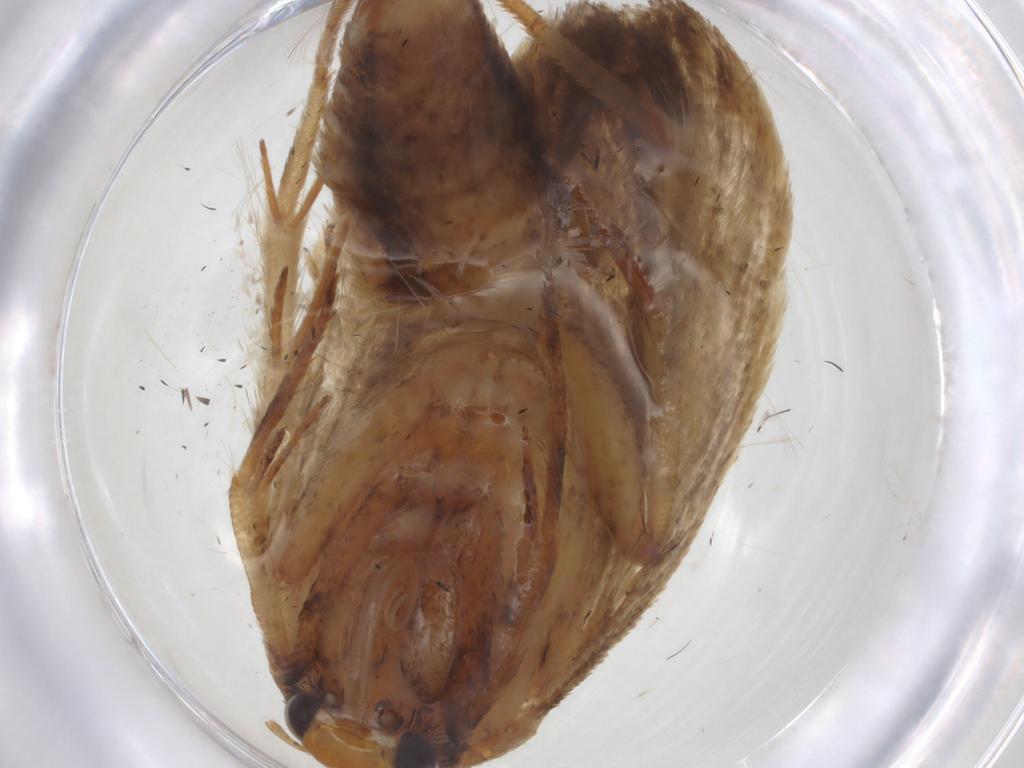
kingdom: Animalia
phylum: Arthropoda
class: Insecta
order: Lepidoptera
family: Gelechiidae
